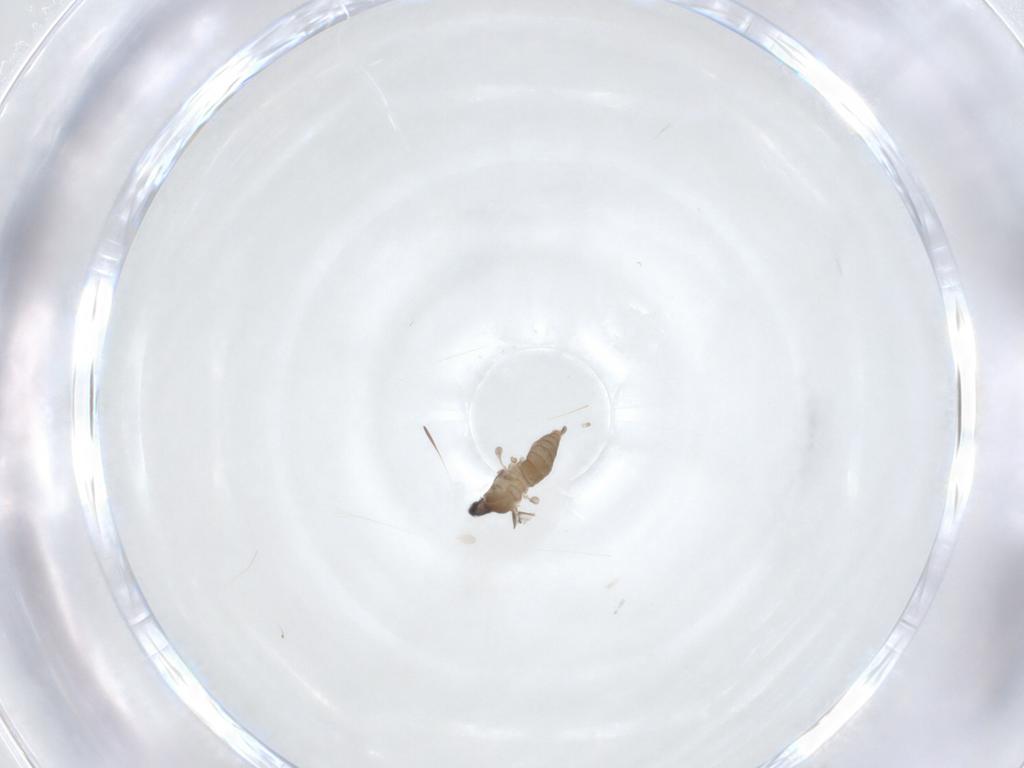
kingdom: Animalia
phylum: Arthropoda
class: Insecta
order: Diptera
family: Cecidomyiidae
